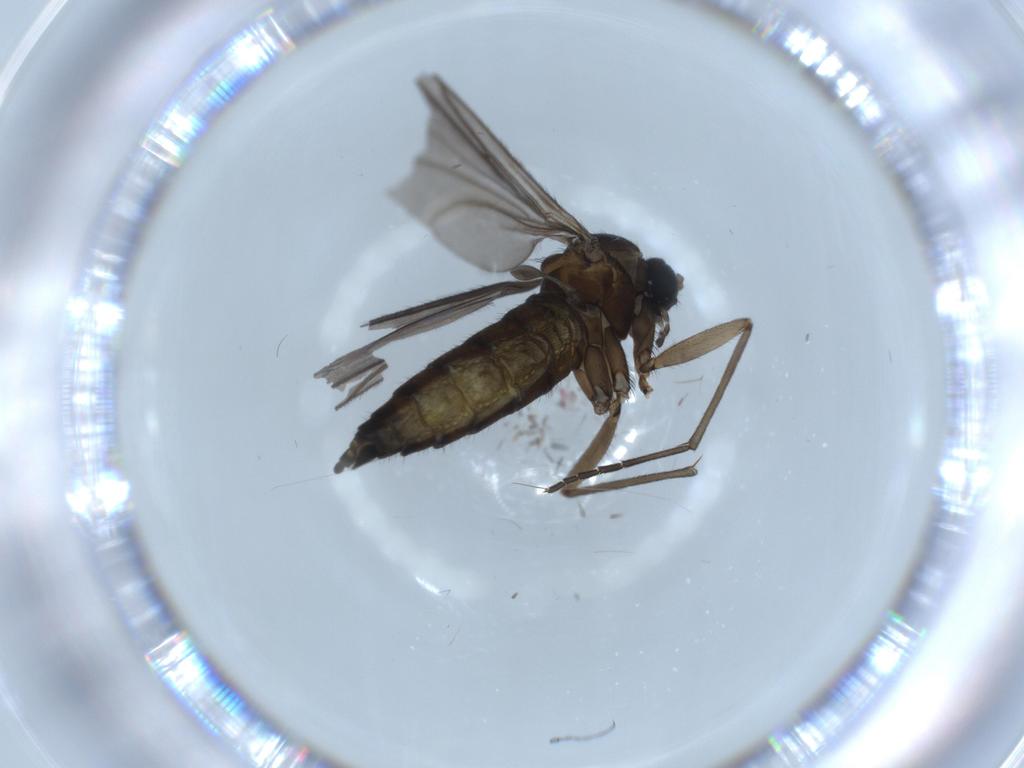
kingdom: Animalia
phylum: Arthropoda
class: Insecta
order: Diptera
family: Sciaridae
